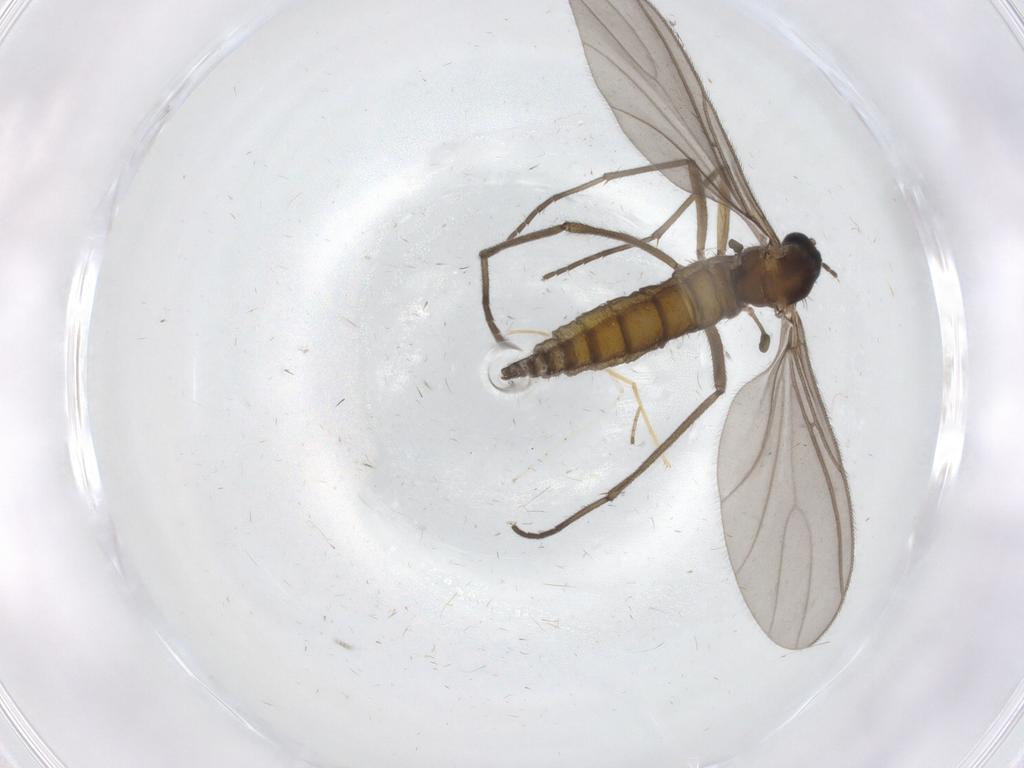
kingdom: Animalia
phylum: Arthropoda
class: Insecta
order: Diptera
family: Sciaridae
